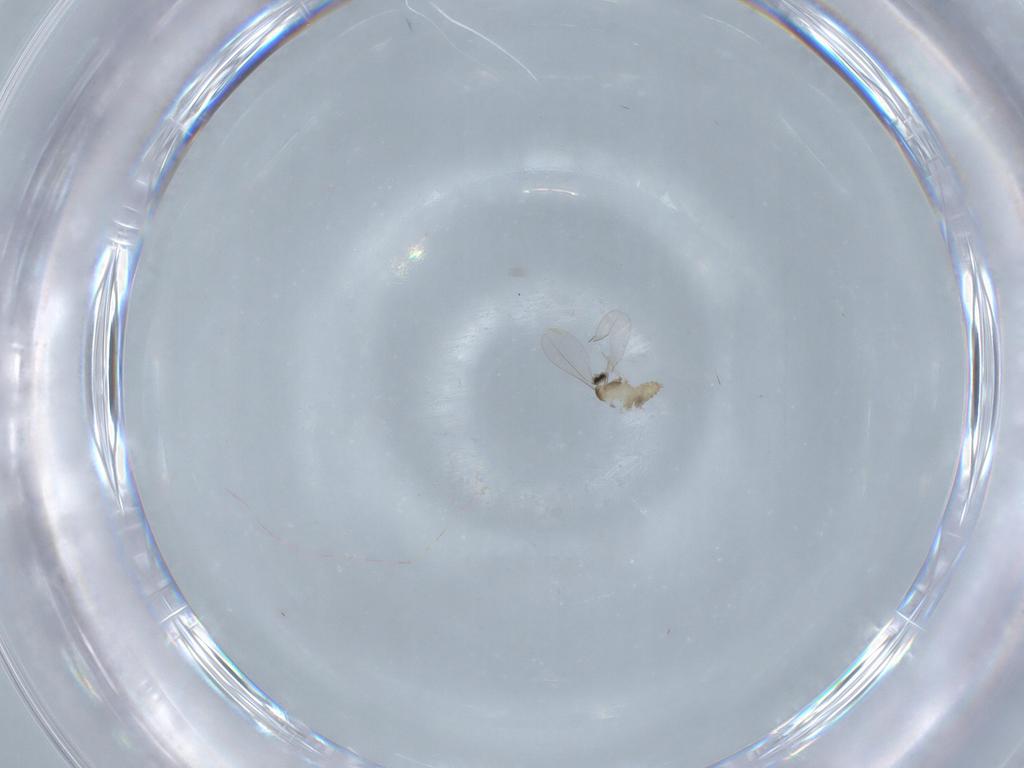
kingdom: Animalia
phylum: Arthropoda
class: Insecta
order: Diptera
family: Cecidomyiidae
